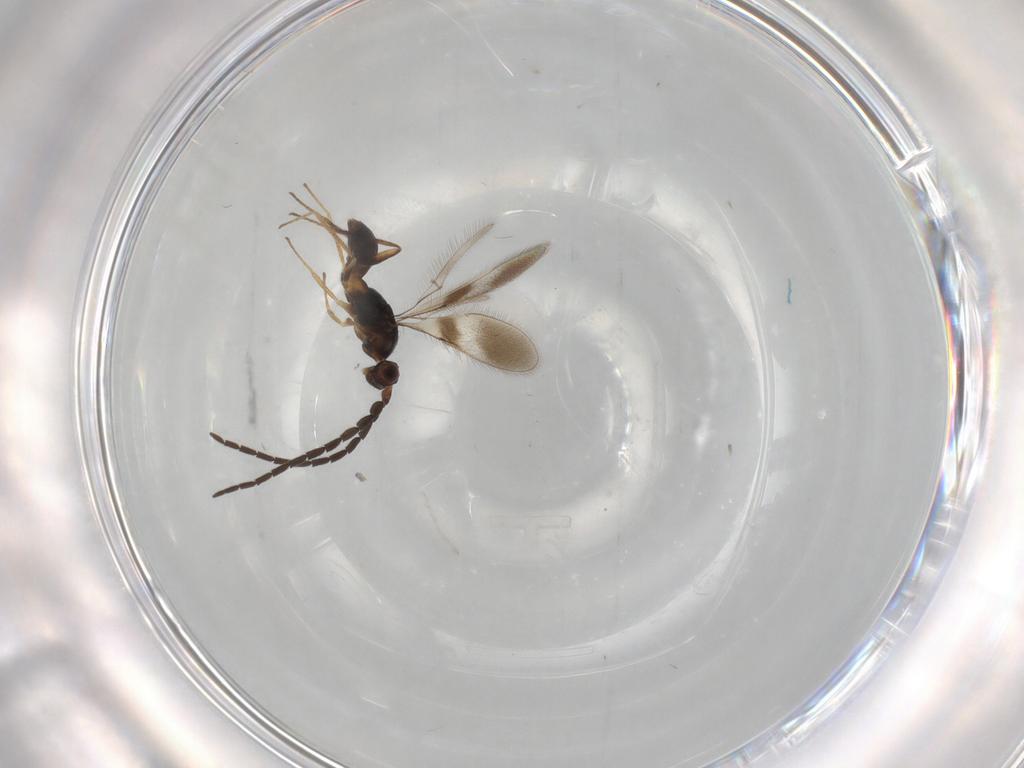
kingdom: Animalia
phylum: Arthropoda
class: Insecta
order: Hymenoptera
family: Mymaridae
